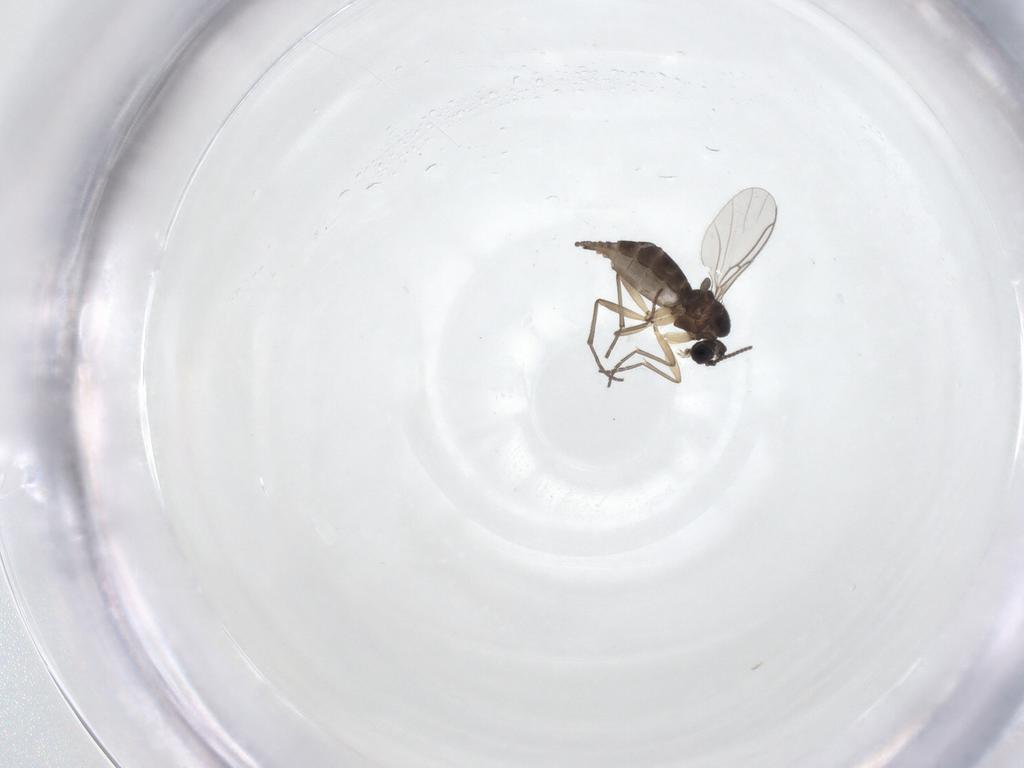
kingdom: Animalia
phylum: Arthropoda
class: Insecta
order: Diptera
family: Cecidomyiidae
